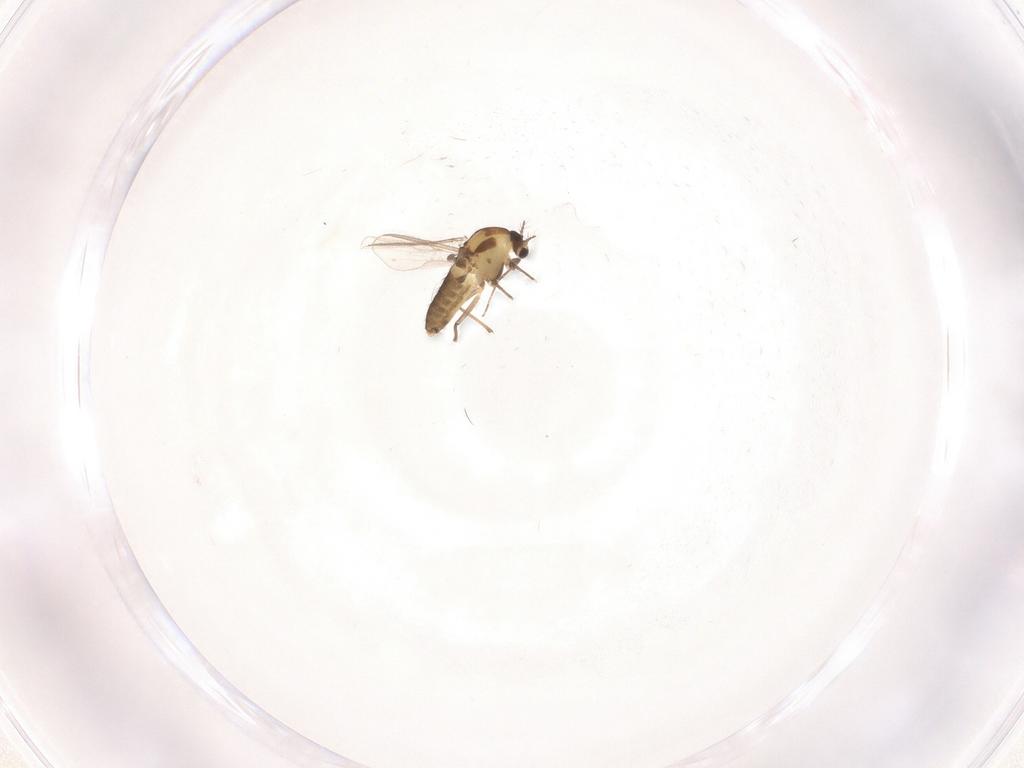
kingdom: Animalia
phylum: Arthropoda
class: Insecta
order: Diptera
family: Chironomidae
